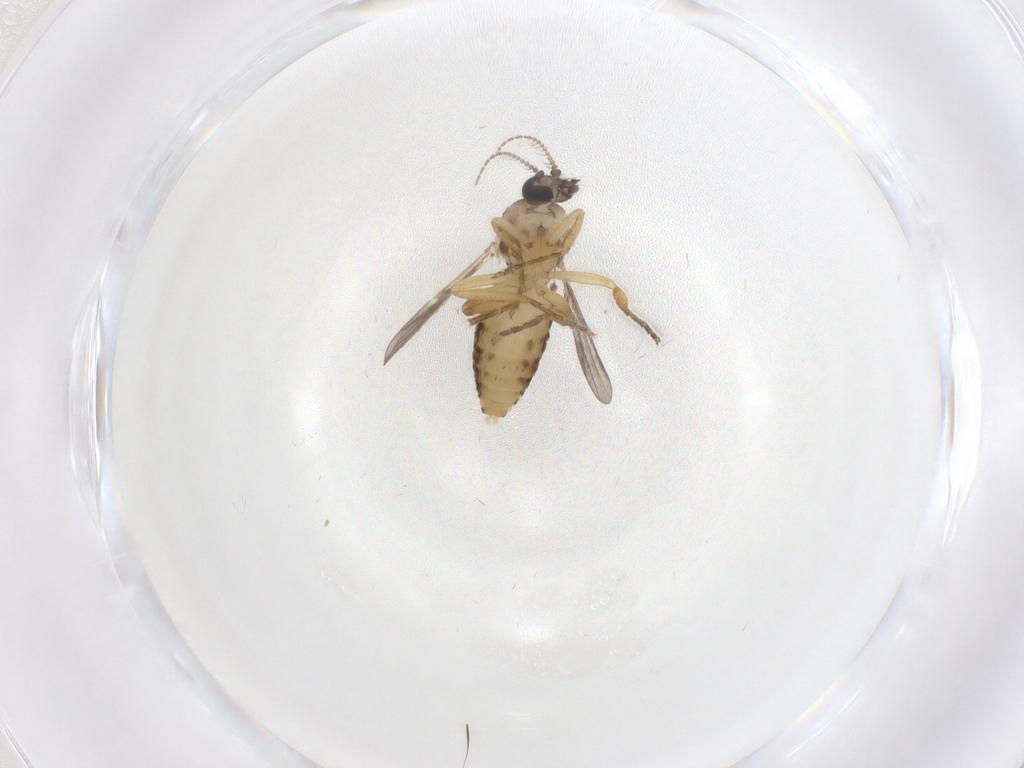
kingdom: Animalia
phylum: Arthropoda
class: Insecta
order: Diptera
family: Ceratopogonidae
